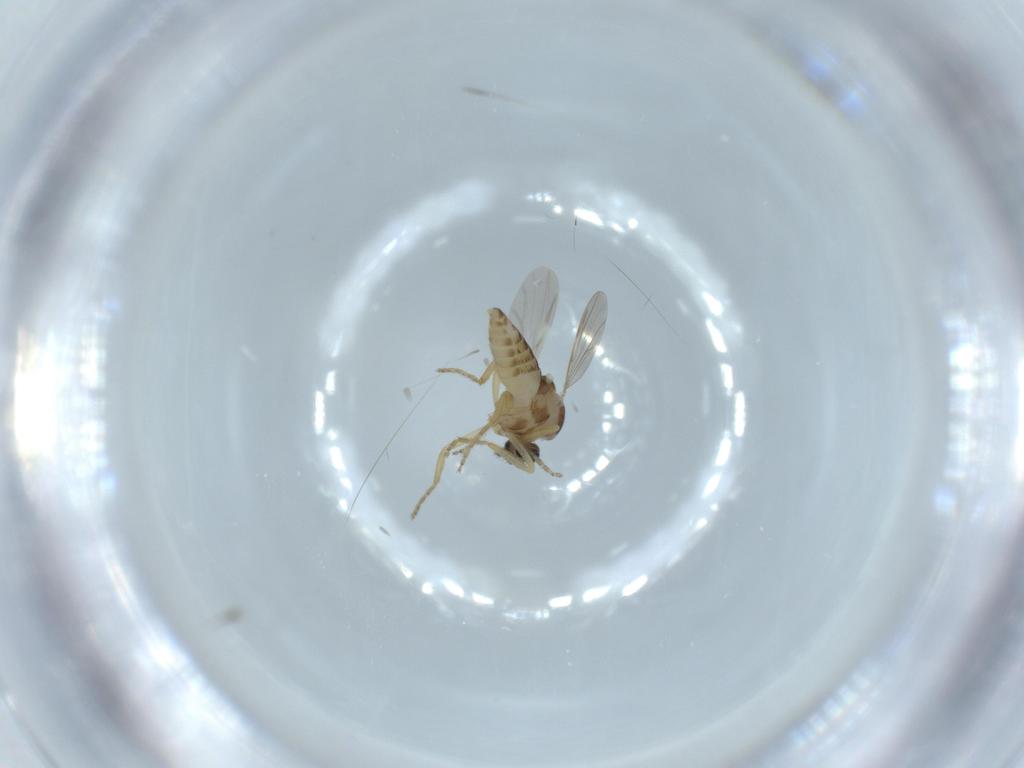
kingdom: Animalia
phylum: Arthropoda
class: Insecta
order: Diptera
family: Ceratopogonidae
